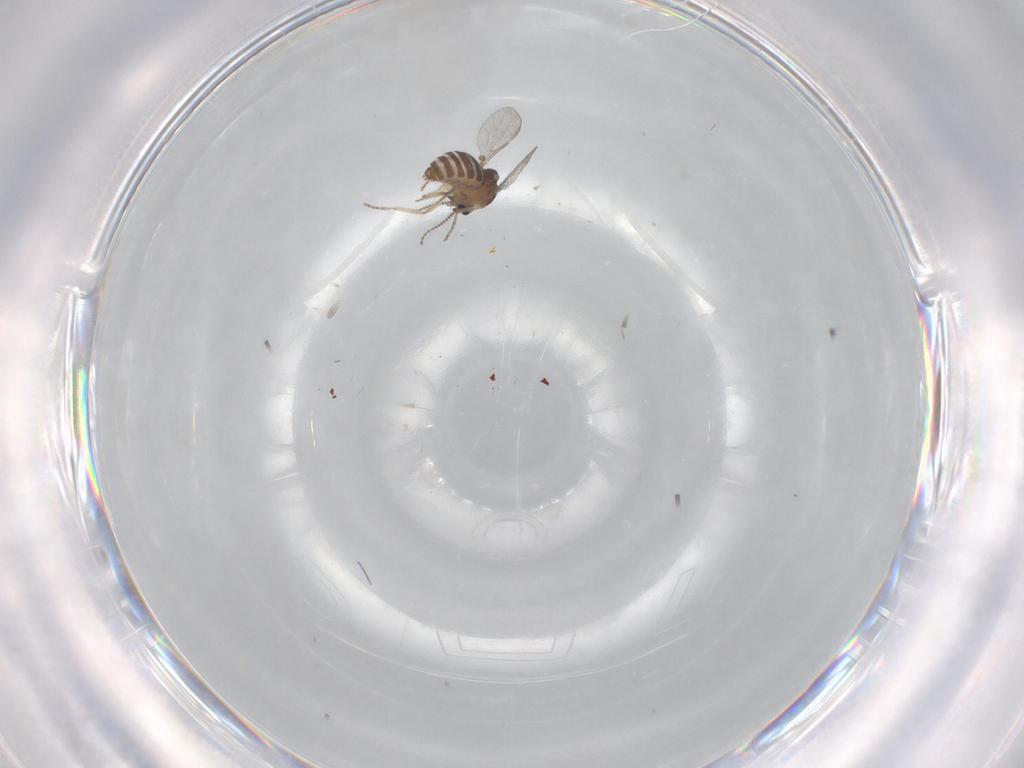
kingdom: Animalia
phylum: Arthropoda
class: Insecta
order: Diptera
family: Ceratopogonidae
